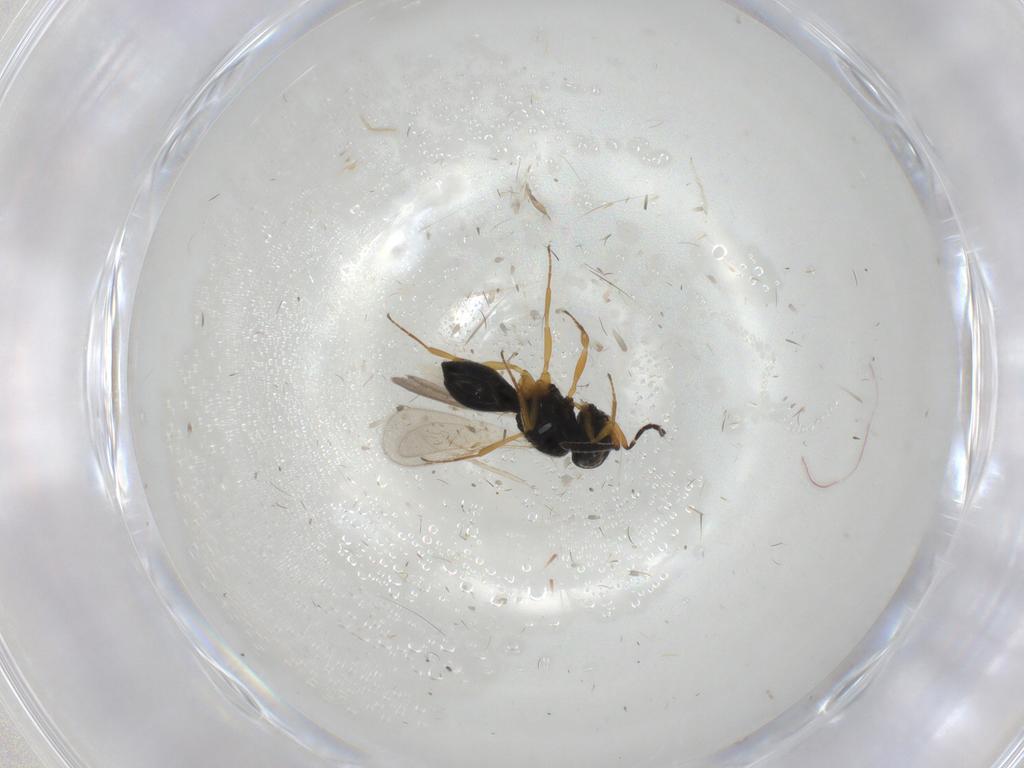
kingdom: Animalia
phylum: Arthropoda
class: Insecta
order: Hymenoptera
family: Scelionidae
